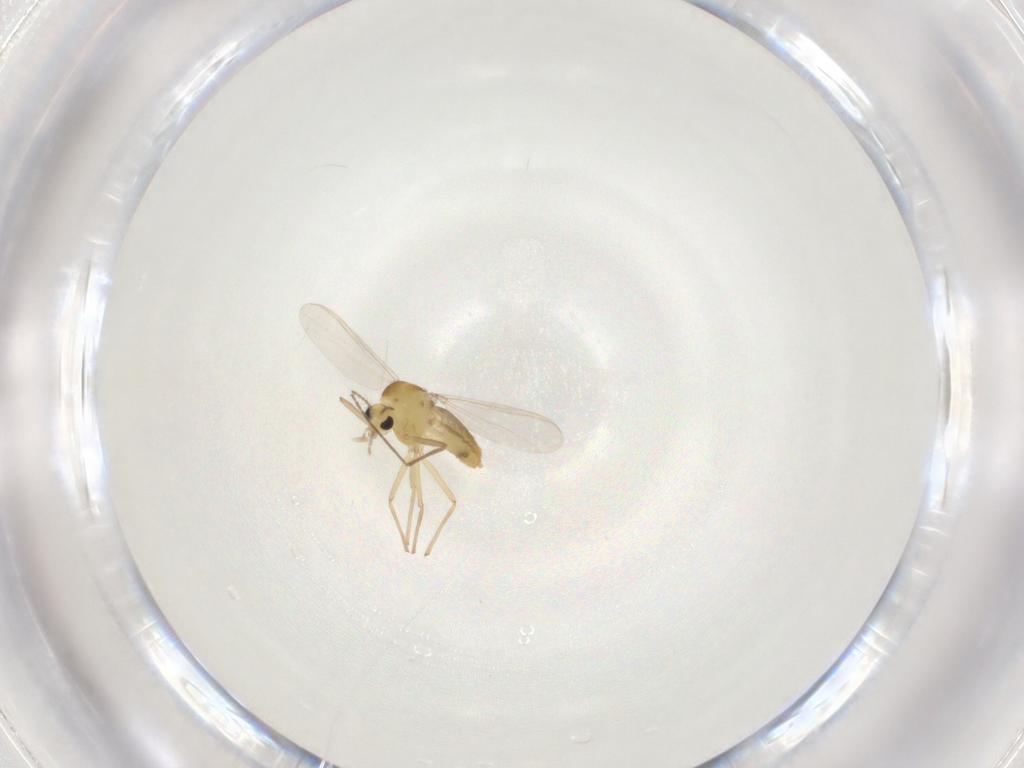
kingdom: Animalia
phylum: Arthropoda
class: Insecta
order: Diptera
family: Chironomidae
